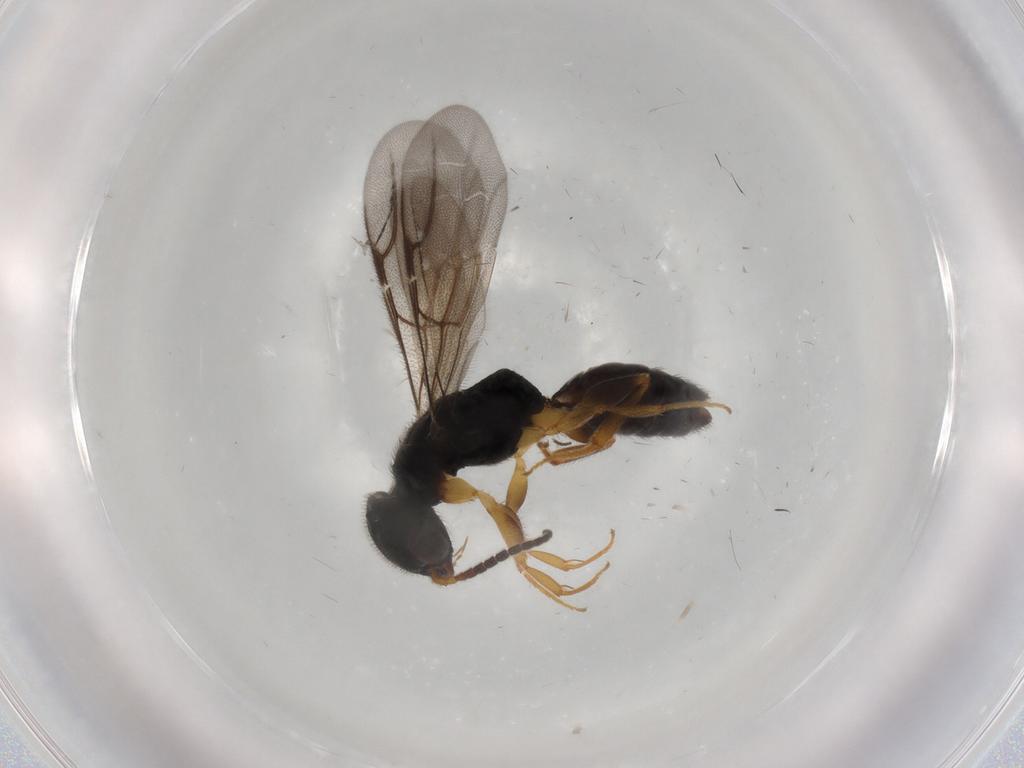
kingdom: Animalia
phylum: Arthropoda
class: Insecta
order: Hymenoptera
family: Bethylidae
